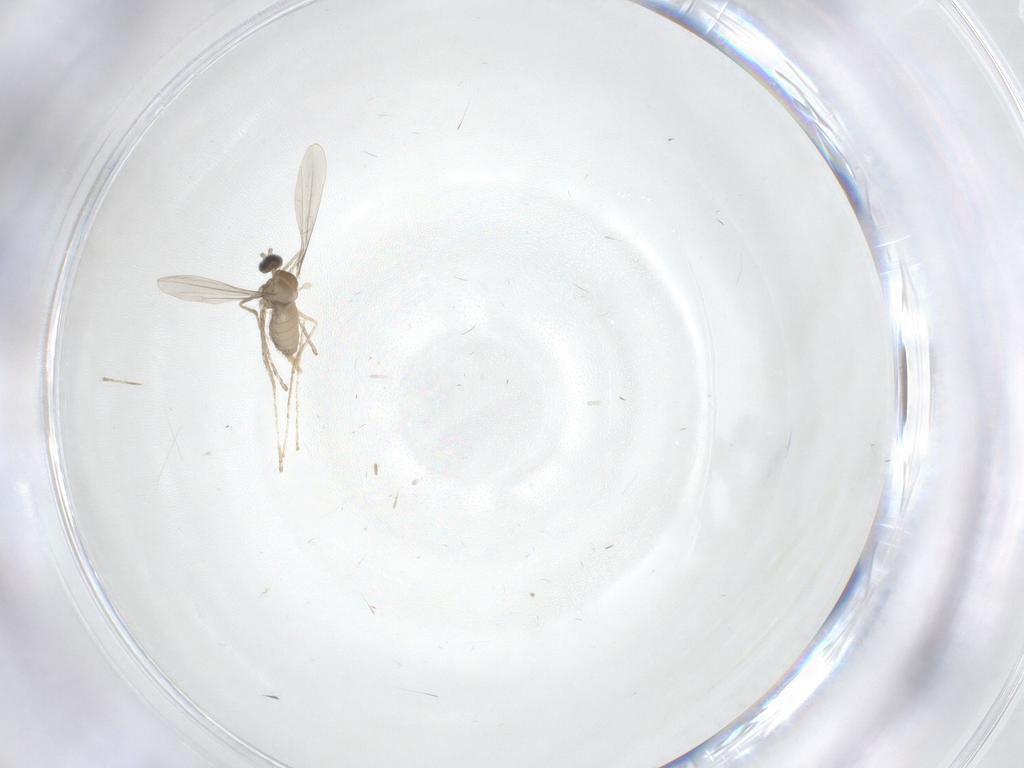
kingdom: Animalia
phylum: Arthropoda
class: Insecta
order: Diptera
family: Cecidomyiidae
